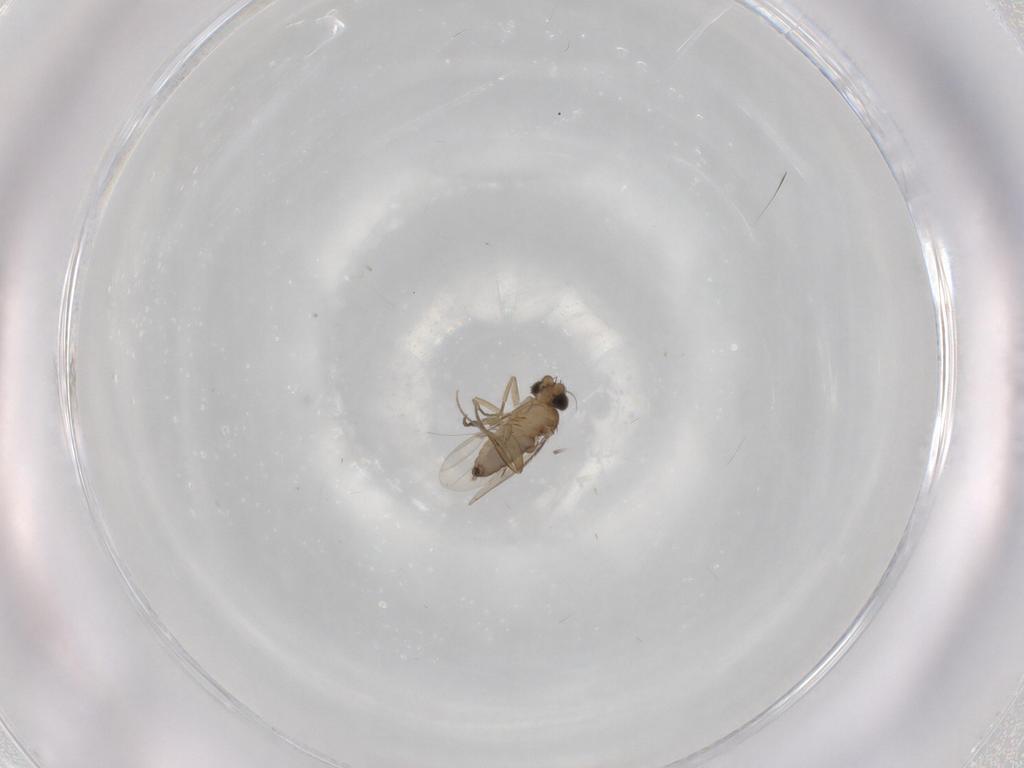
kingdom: Animalia
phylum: Arthropoda
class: Insecta
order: Diptera
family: Phoridae
